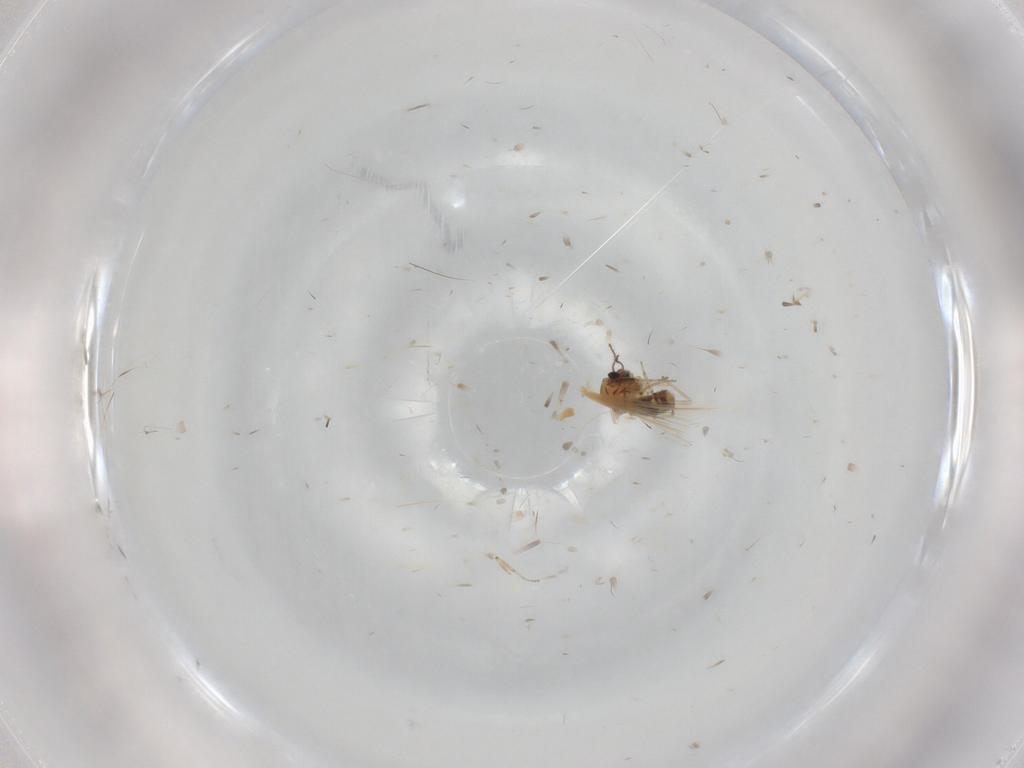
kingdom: Animalia
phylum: Arthropoda
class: Insecta
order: Diptera
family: Ceratopogonidae
